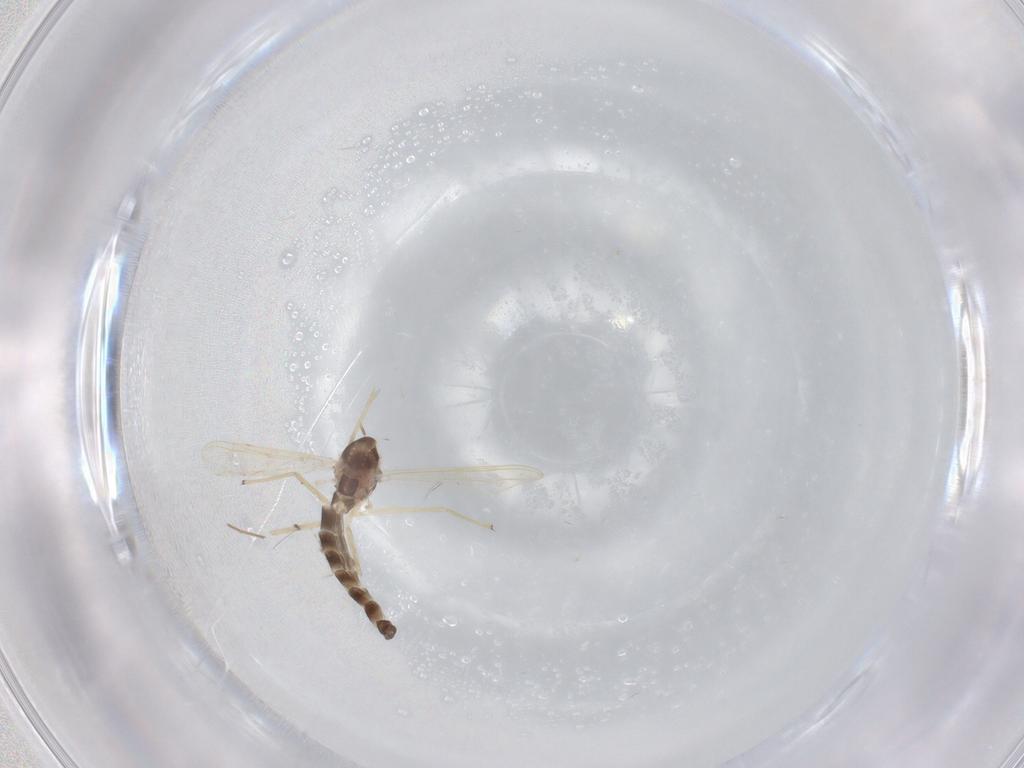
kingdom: Animalia
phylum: Arthropoda
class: Insecta
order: Diptera
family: Chironomidae
